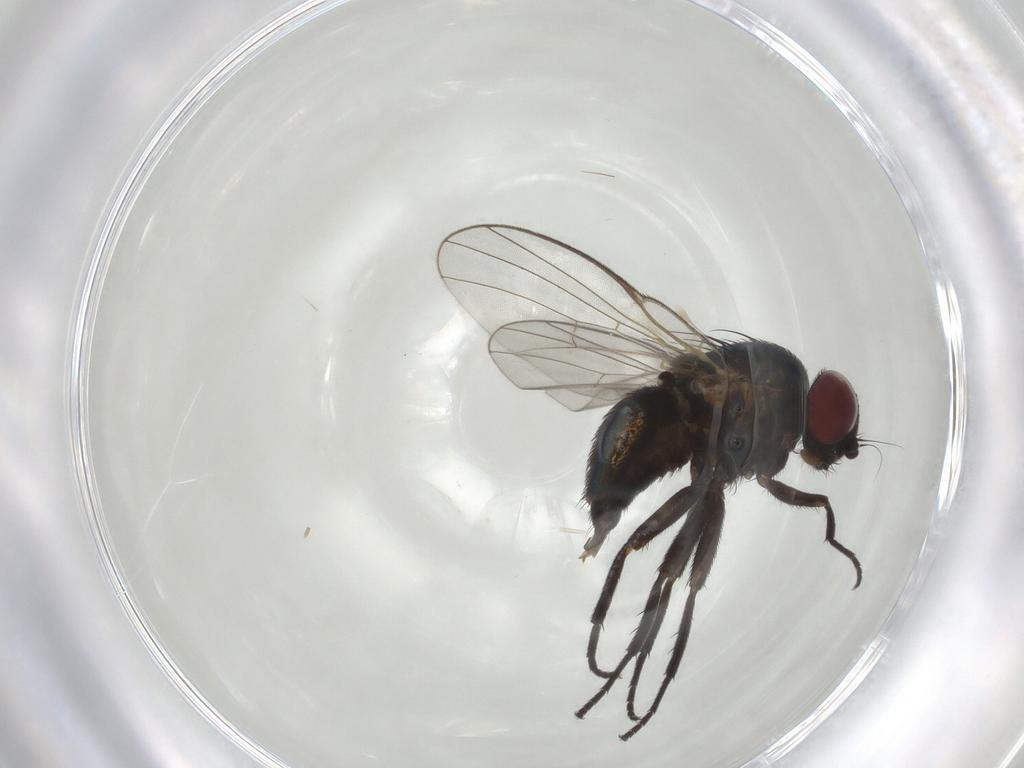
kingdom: Animalia
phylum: Arthropoda
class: Insecta
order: Diptera
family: Agromyzidae
